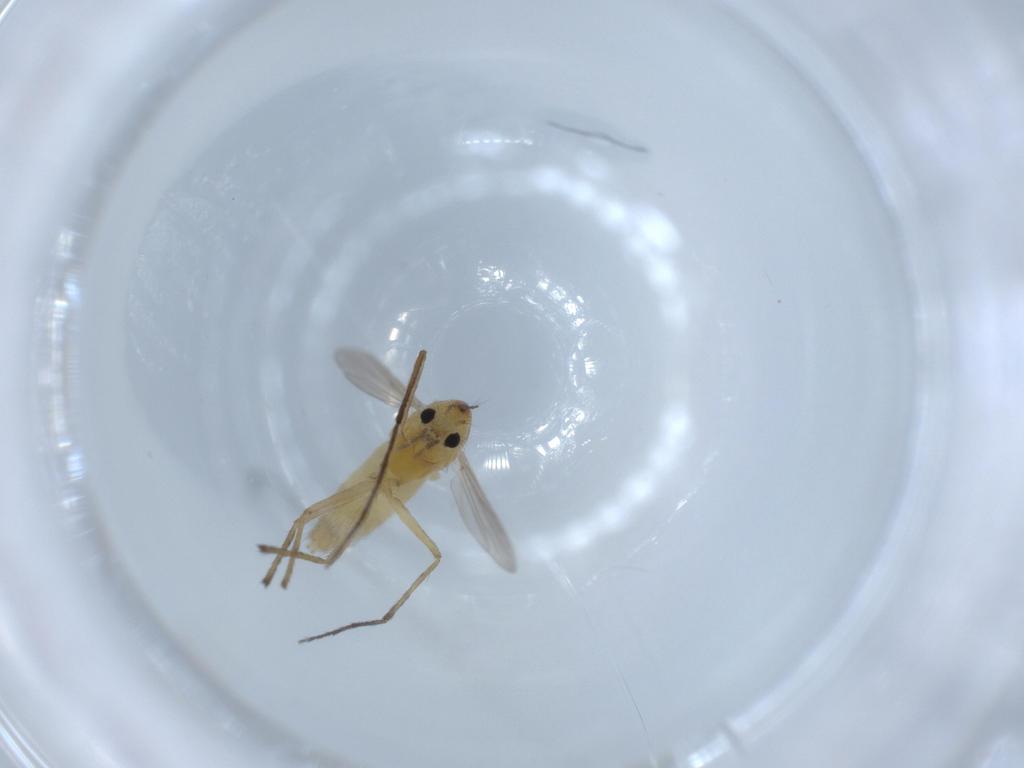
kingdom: Animalia
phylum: Arthropoda
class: Insecta
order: Diptera
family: Chironomidae
